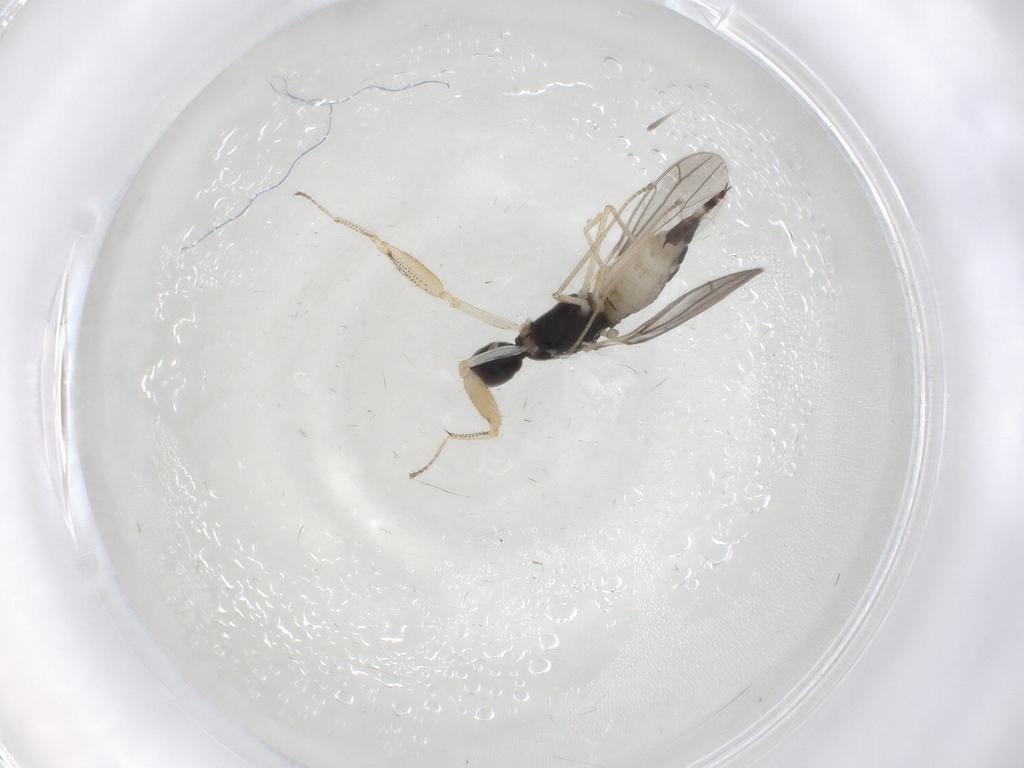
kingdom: Animalia
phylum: Arthropoda
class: Insecta
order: Diptera
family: Empididae
